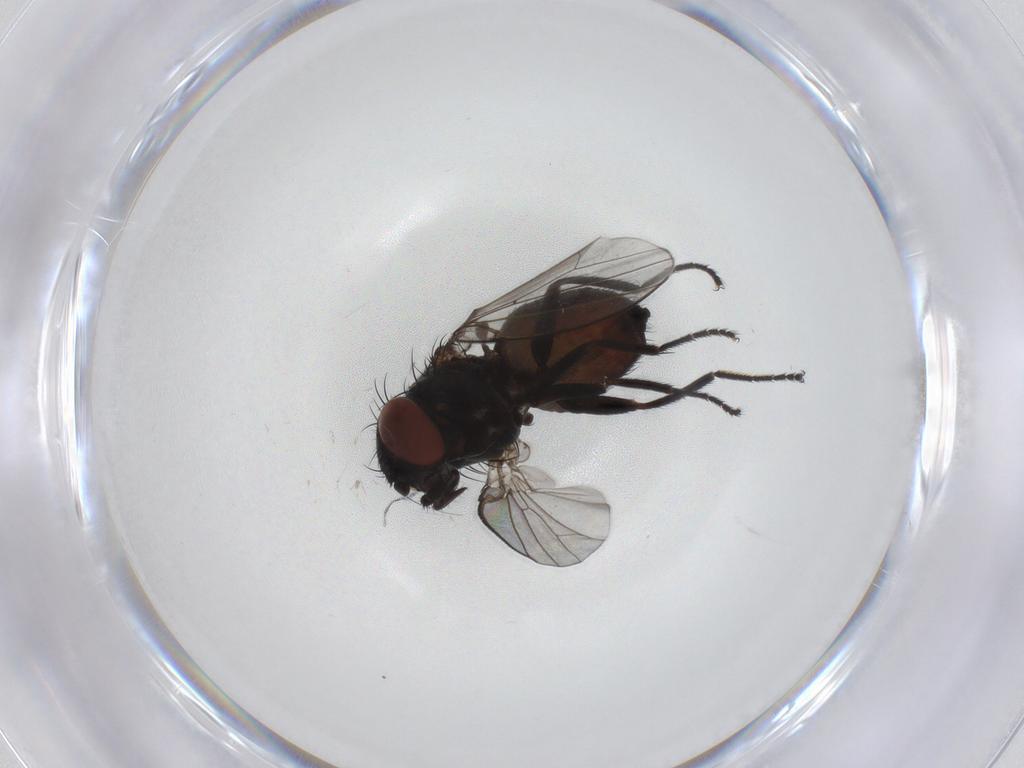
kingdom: Animalia
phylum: Arthropoda
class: Insecta
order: Diptera
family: Milichiidae
